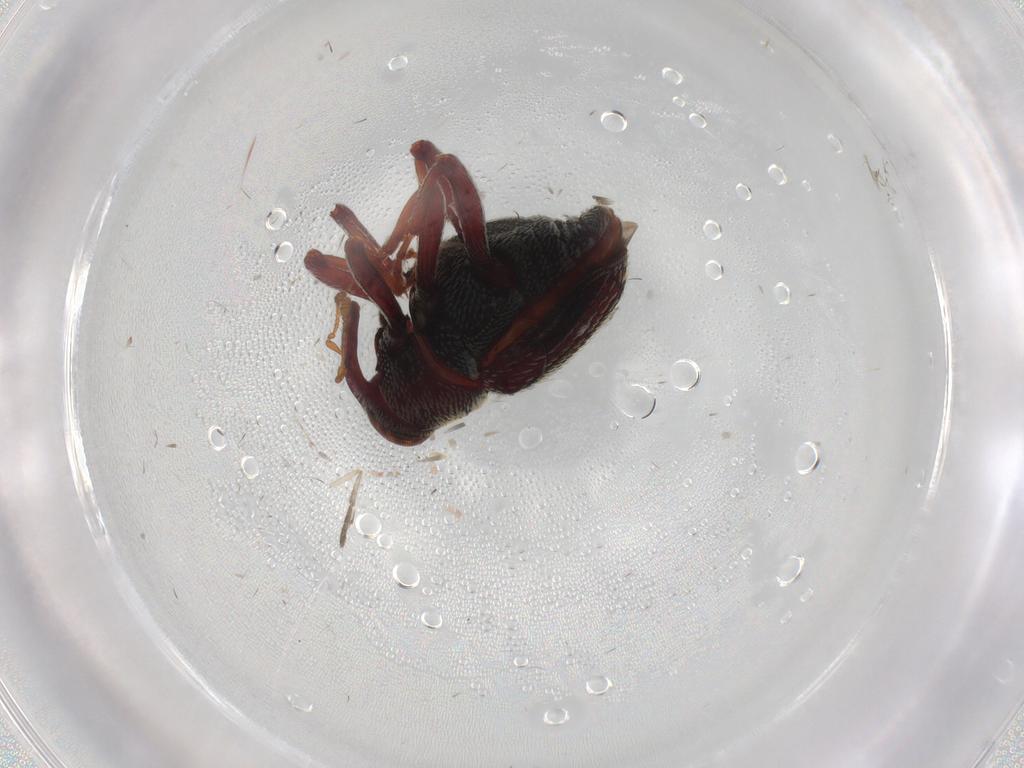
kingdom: Animalia
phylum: Arthropoda
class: Insecta
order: Coleoptera
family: Curculionidae
